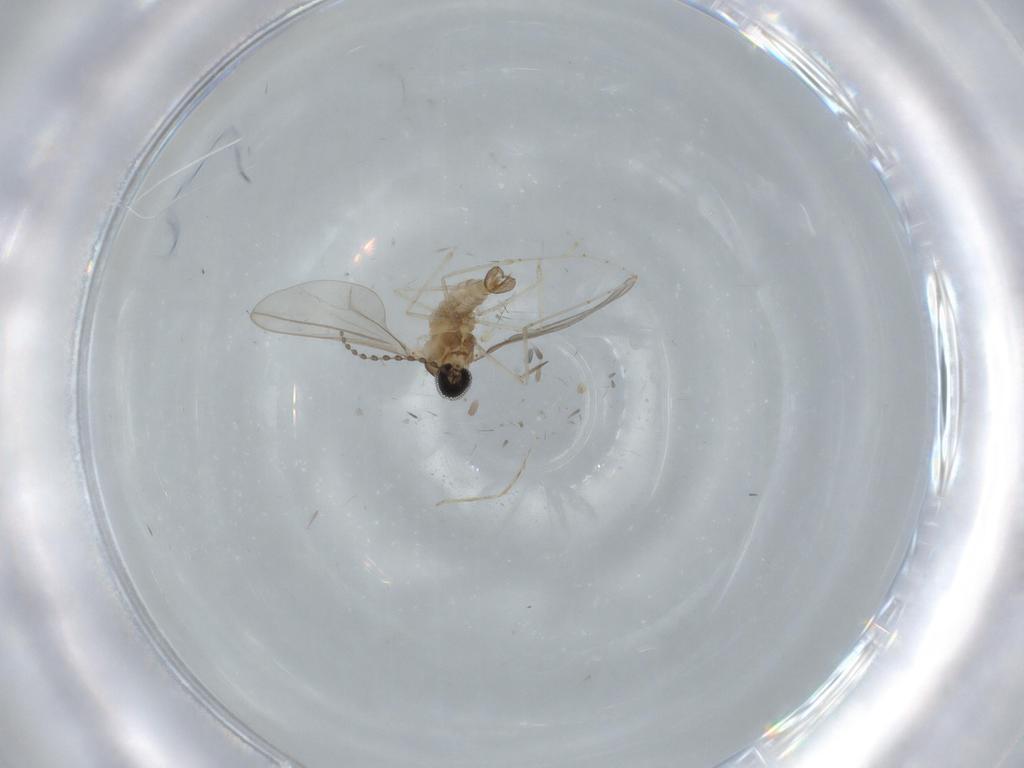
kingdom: Animalia
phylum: Arthropoda
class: Insecta
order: Diptera
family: Cecidomyiidae
